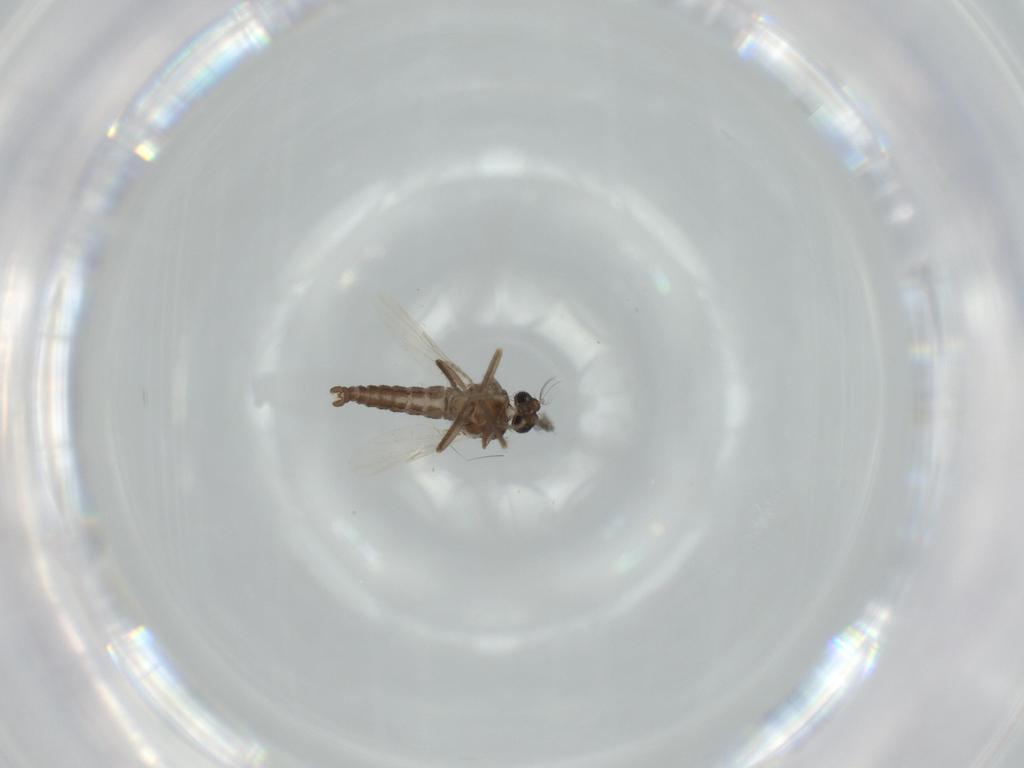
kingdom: Animalia
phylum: Arthropoda
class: Insecta
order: Diptera
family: Ceratopogonidae
